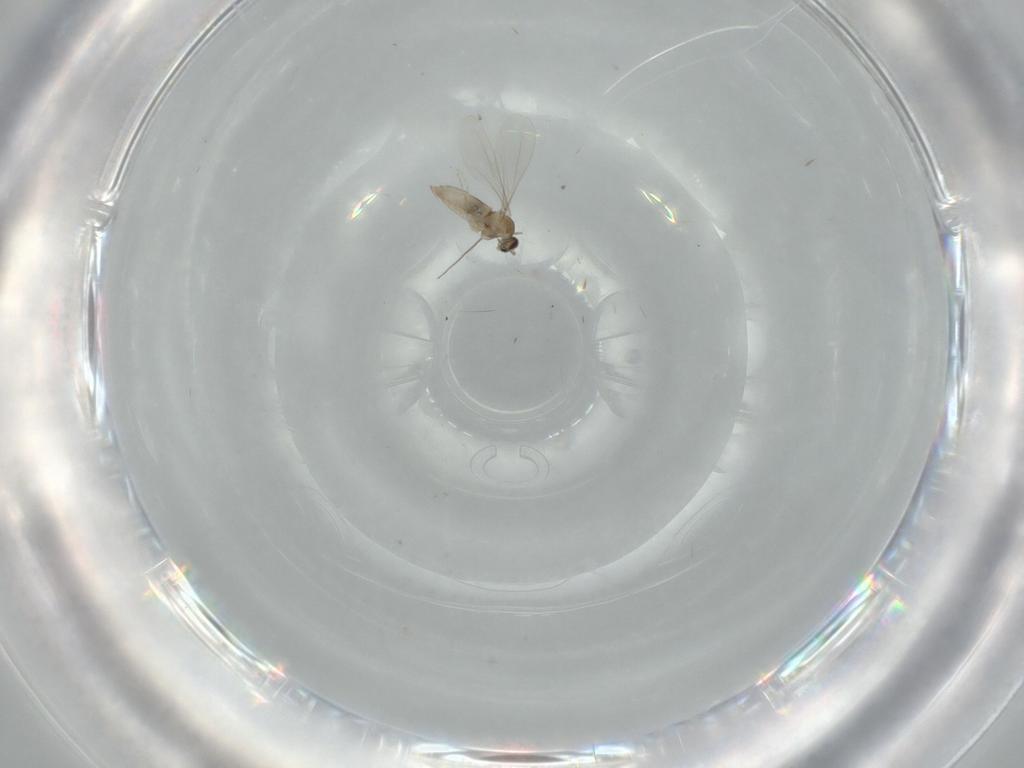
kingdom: Animalia
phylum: Arthropoda
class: Insecta
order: Diptera
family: Cecidomyiidae
